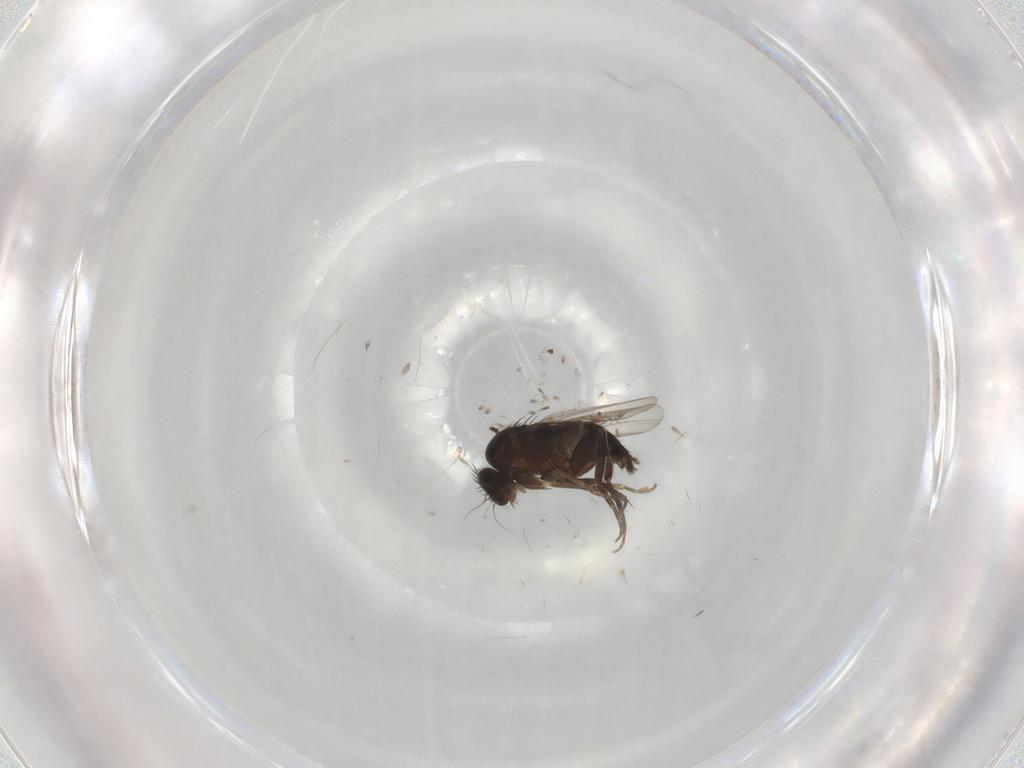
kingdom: Animalia
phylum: Arthropoda
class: Insecta
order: Diptera
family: Phoridae
